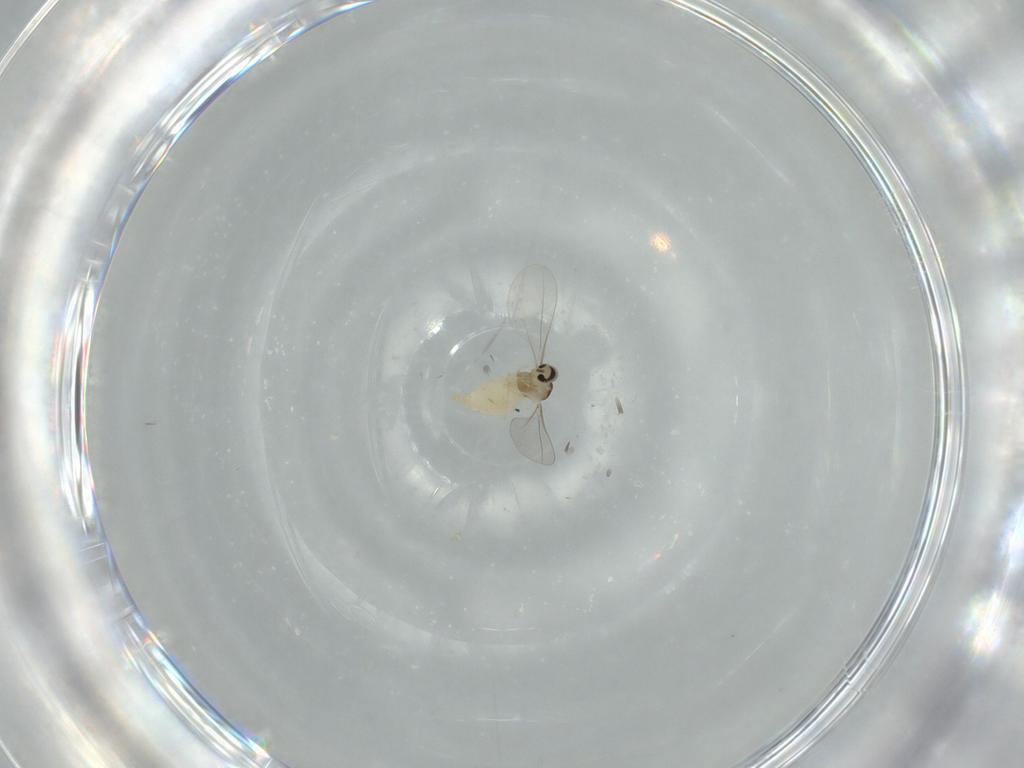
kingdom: Animalia
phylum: Arthropoda
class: Insecta
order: Diptera
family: Cecidomyiidae
